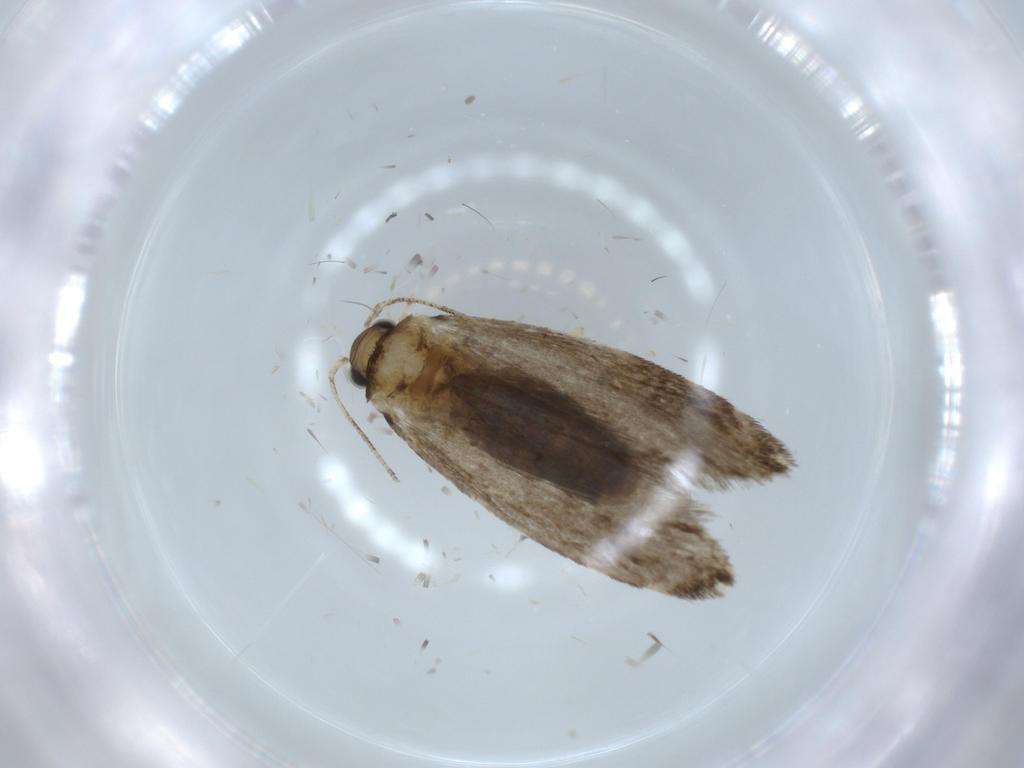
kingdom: Animalia
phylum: Arthropoda
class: Insecta
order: Lepidoptera
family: Tineidae
